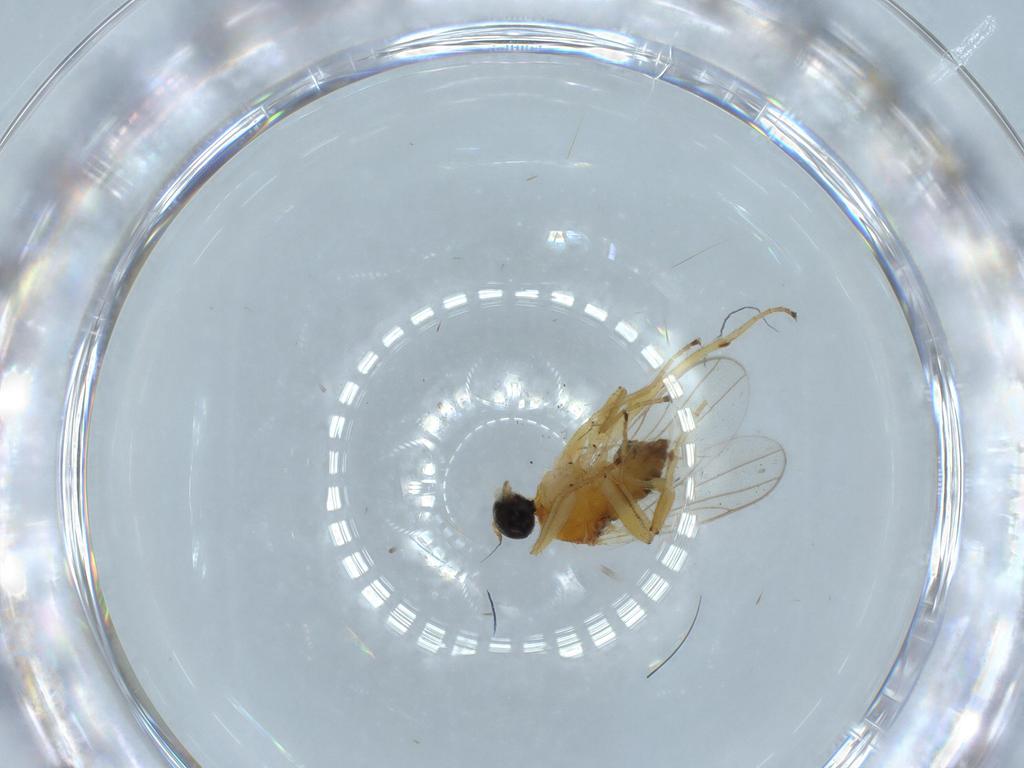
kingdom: Animalia
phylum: Arthropoda
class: Insecta
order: Diptera
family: Hybotidae
